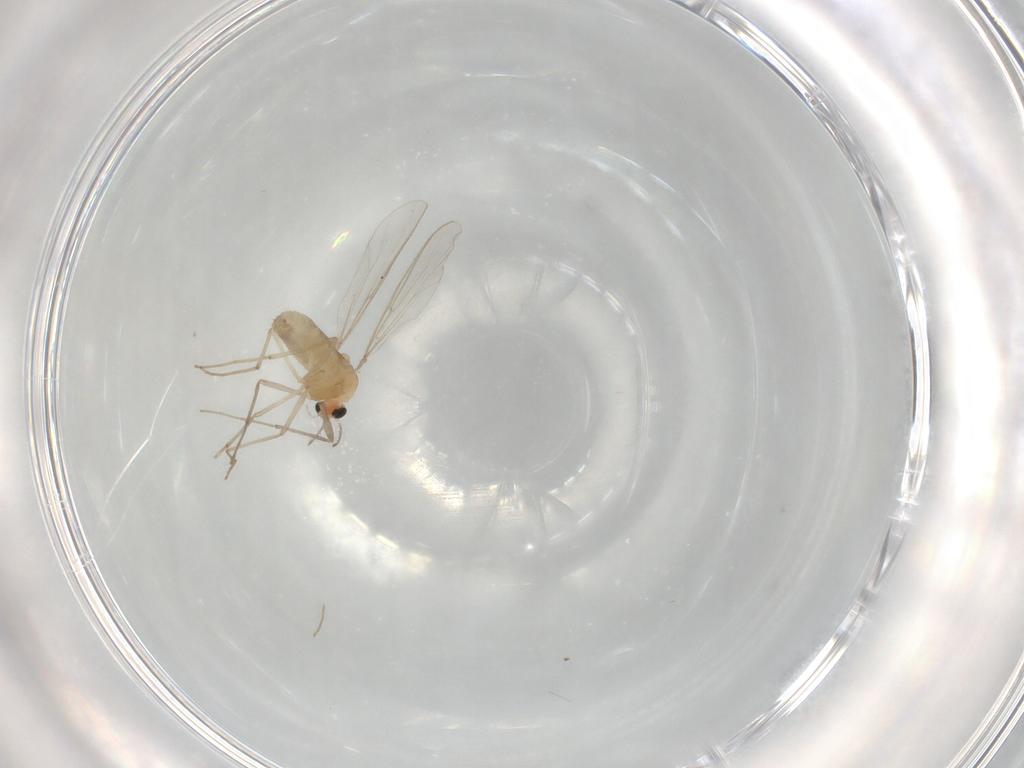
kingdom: Animalia
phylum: Arthropoda
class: Insecta
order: Diptera
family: Chironomidae
